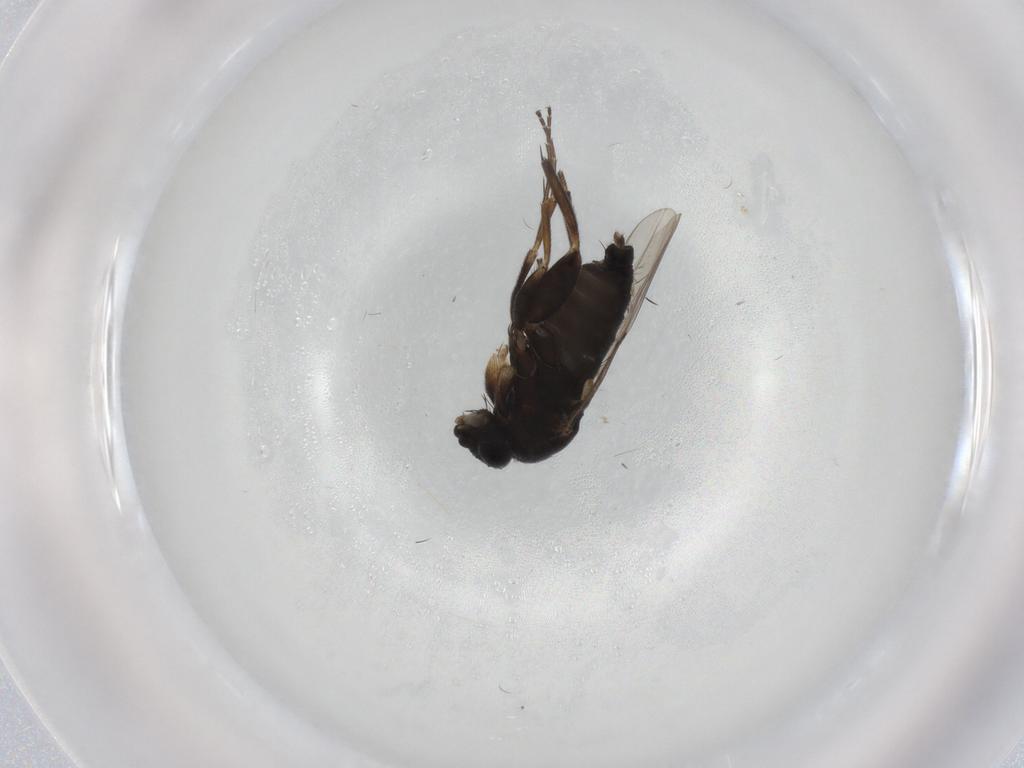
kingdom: Animalia
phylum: Arthropoda
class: Insecta
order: Diptera
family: Phoridae
